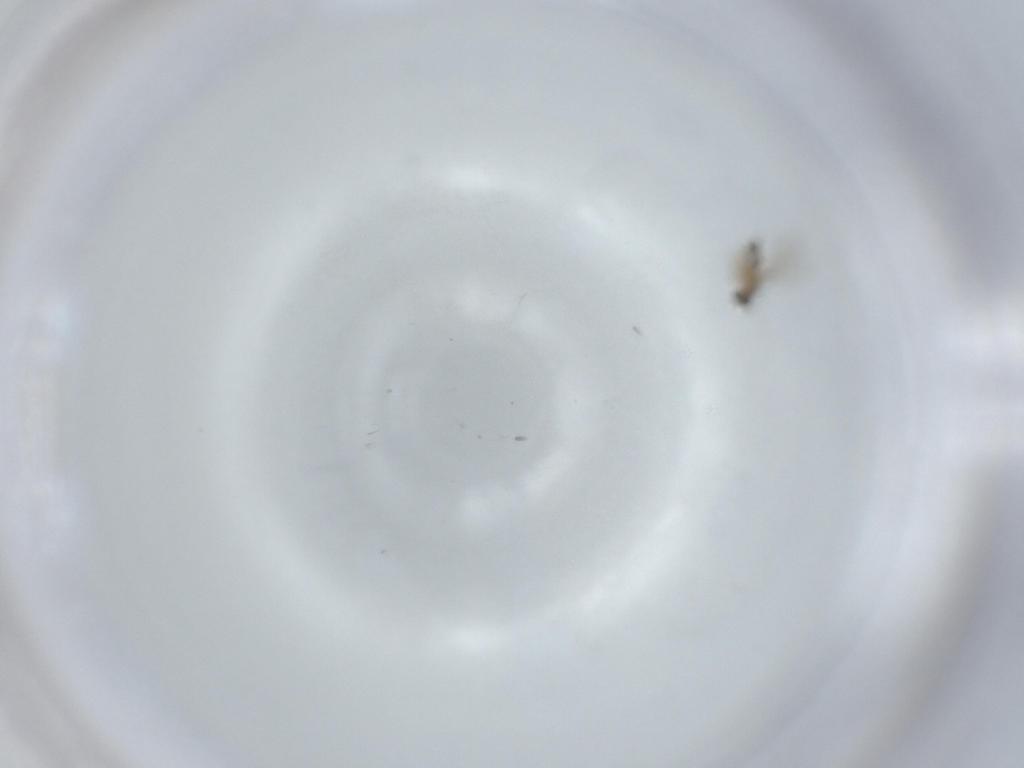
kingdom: Animalia
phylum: Arthropoda
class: Insecta
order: Diptera
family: Cecidomyiidae
